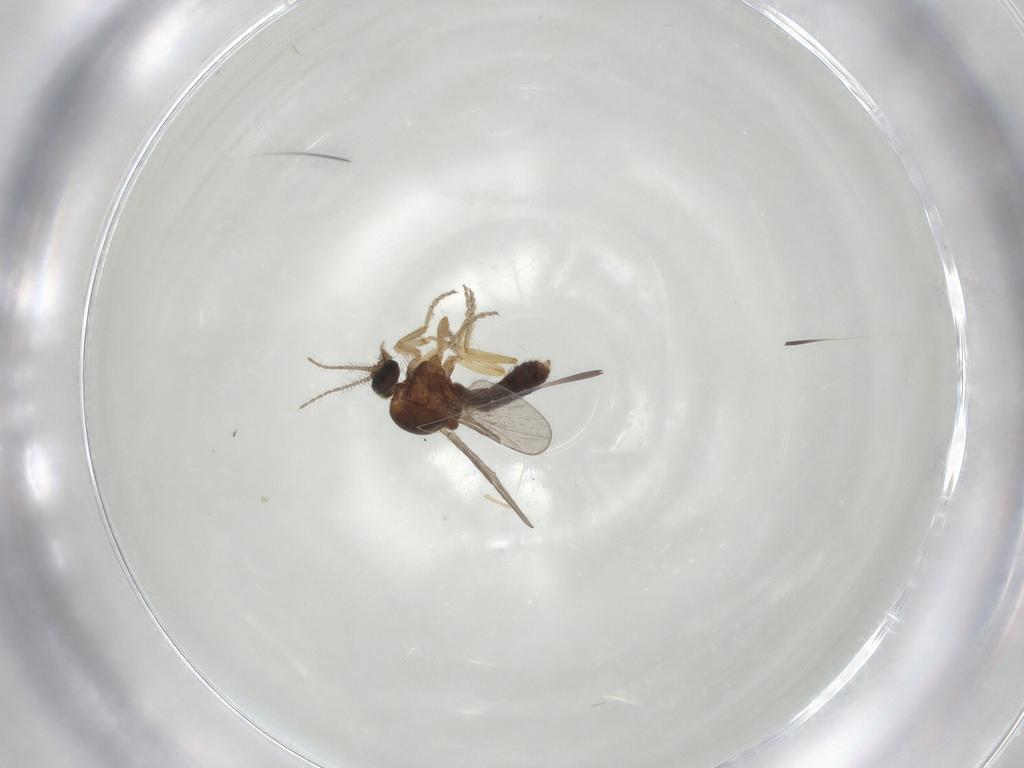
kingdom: Animalia
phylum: Arthropoda
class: Insecta
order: Diptera
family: Ceratopogonidae
